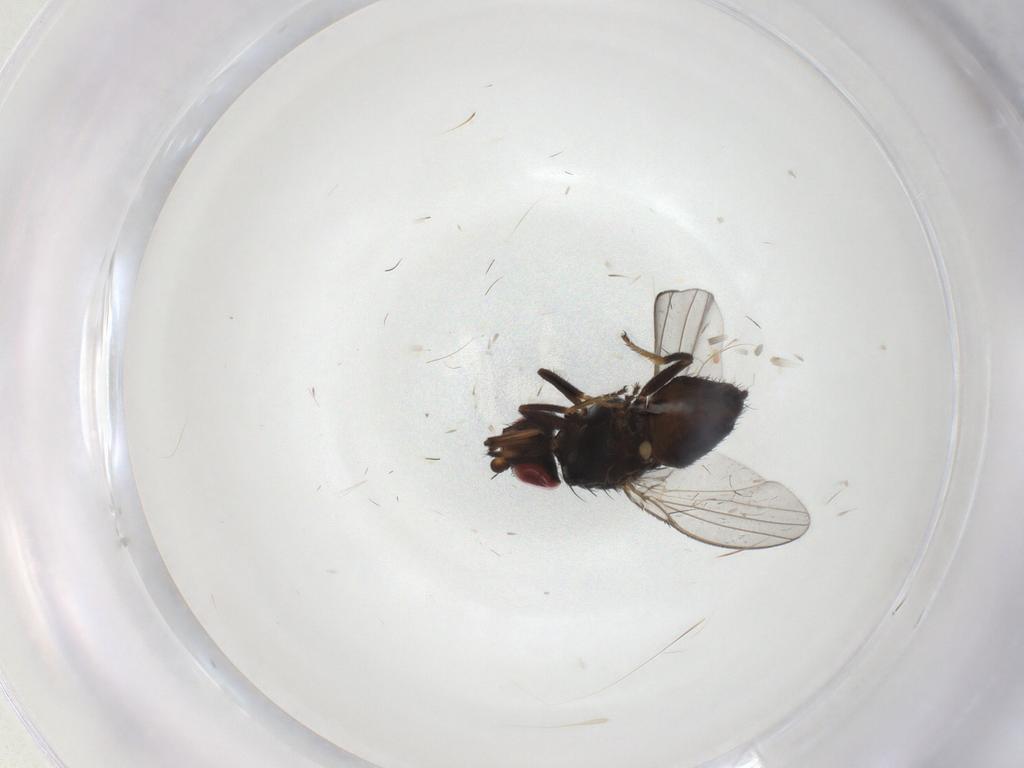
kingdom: Animalia
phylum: Arthropoda
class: Insecta
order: Diptera
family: Milichiidae
